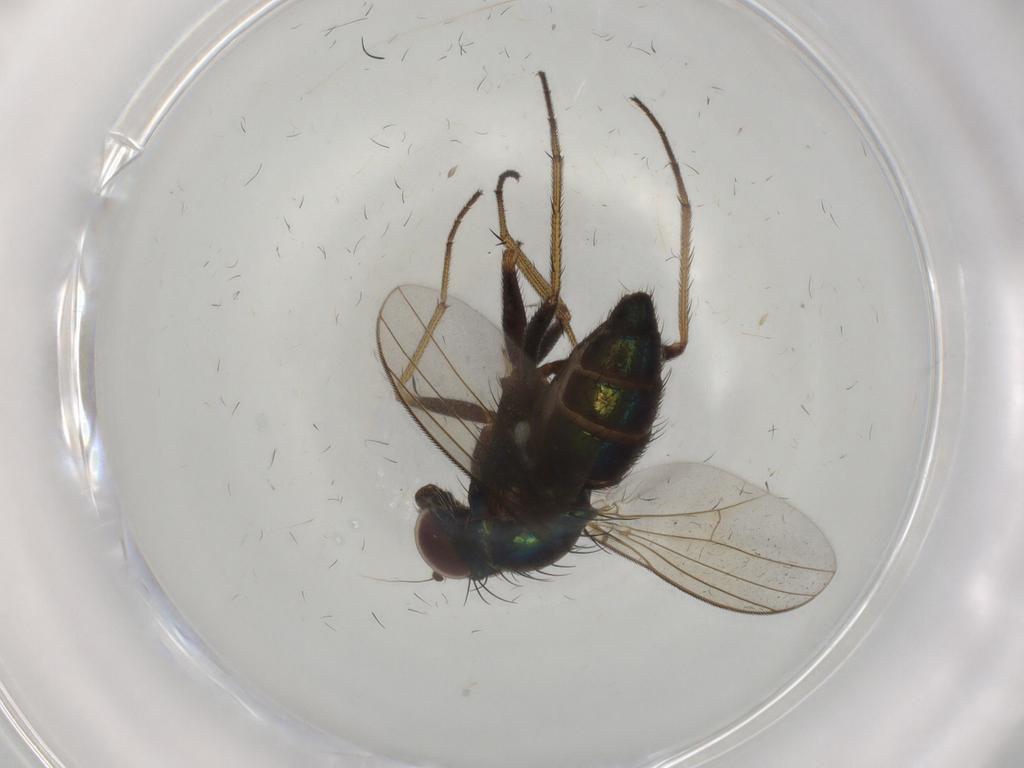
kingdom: Animalia
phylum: Arthropoda
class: Insecta
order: Diptera
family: Dolichopodidae
